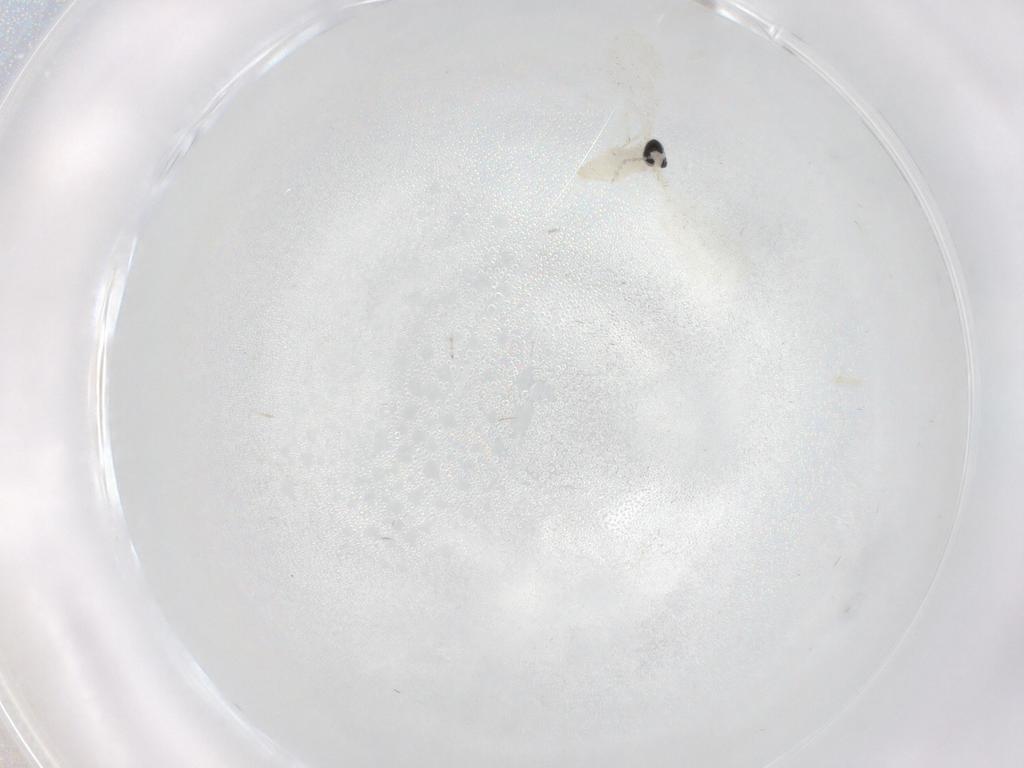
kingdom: Animalia
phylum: Arthropoda
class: Insecta
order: Diptera
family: Cecidomyiidae
